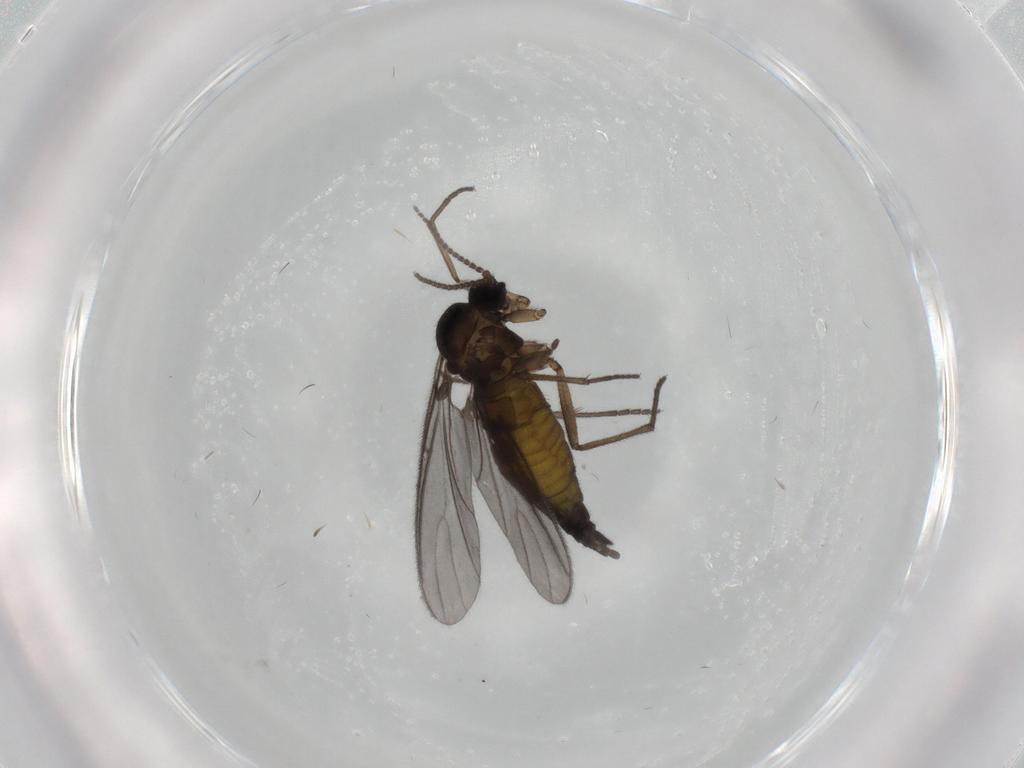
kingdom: Animalia
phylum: Arthropoda
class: Insecta
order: Diptera
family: Sciaridae
